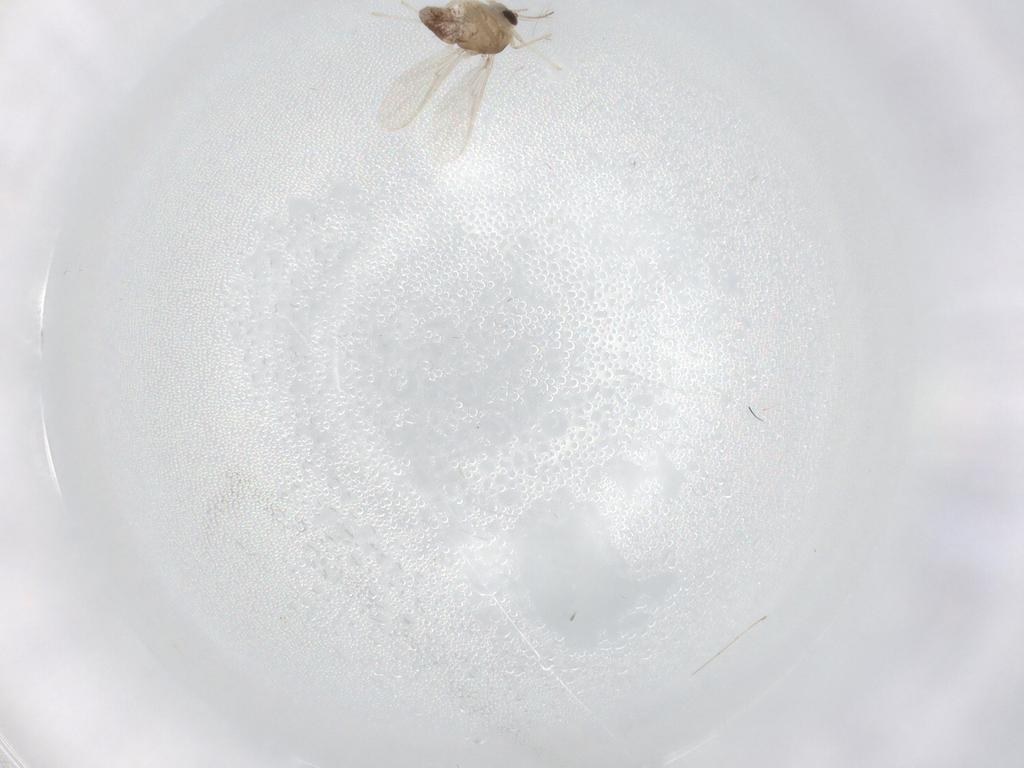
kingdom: Animalia
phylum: Arthropoda
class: Insecta
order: Diptera
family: Chironomidae
